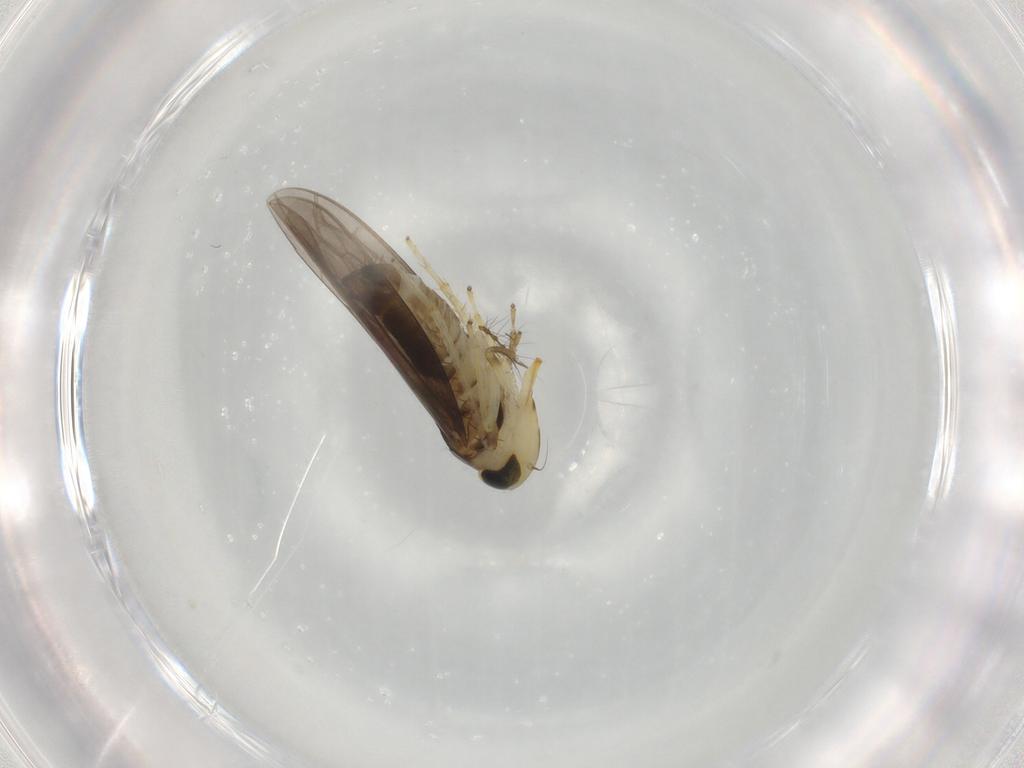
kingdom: Animalia
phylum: Arthropoda
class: Insecta
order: Hemiptera
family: Cicadellidae
